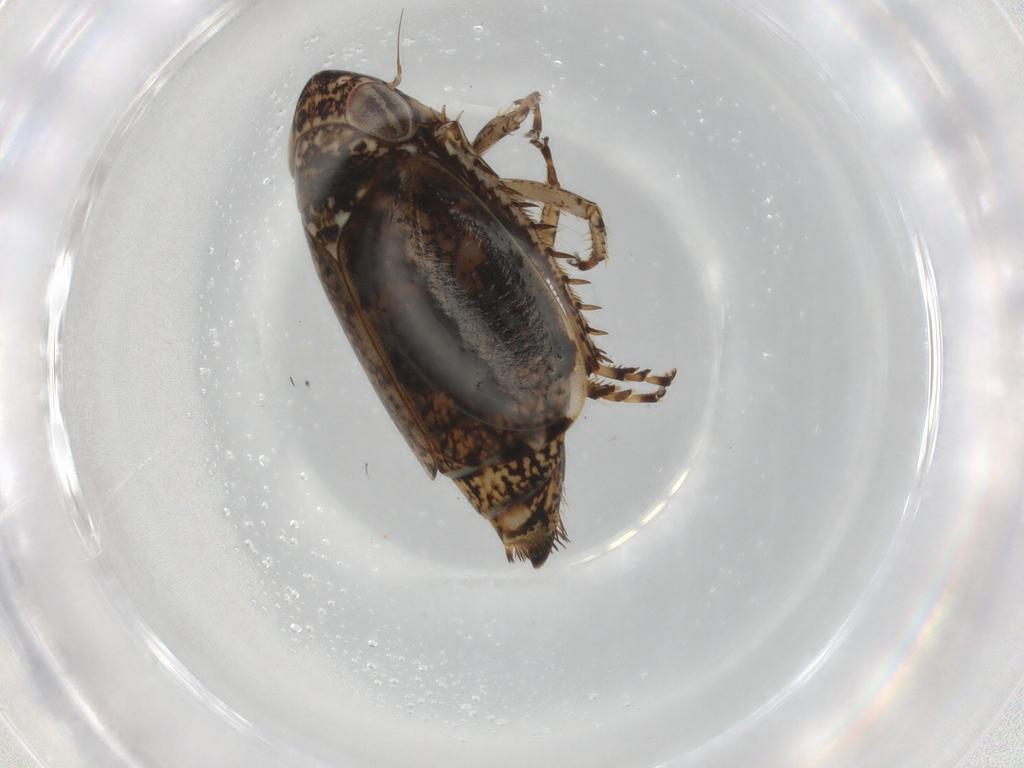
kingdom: Animalia
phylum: Arthropoda
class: Insecta
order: Hemiptera
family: Cicadellidae
